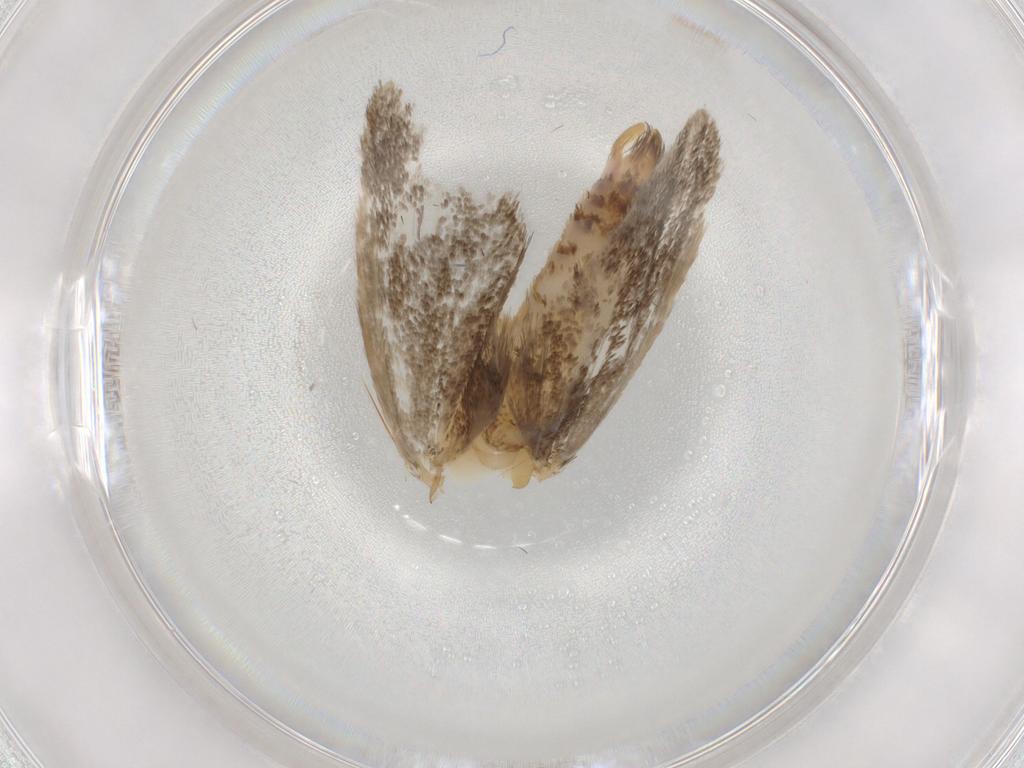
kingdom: Animalia
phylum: Arthropoda
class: Insecta
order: Lepidoptera
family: Tineidae
